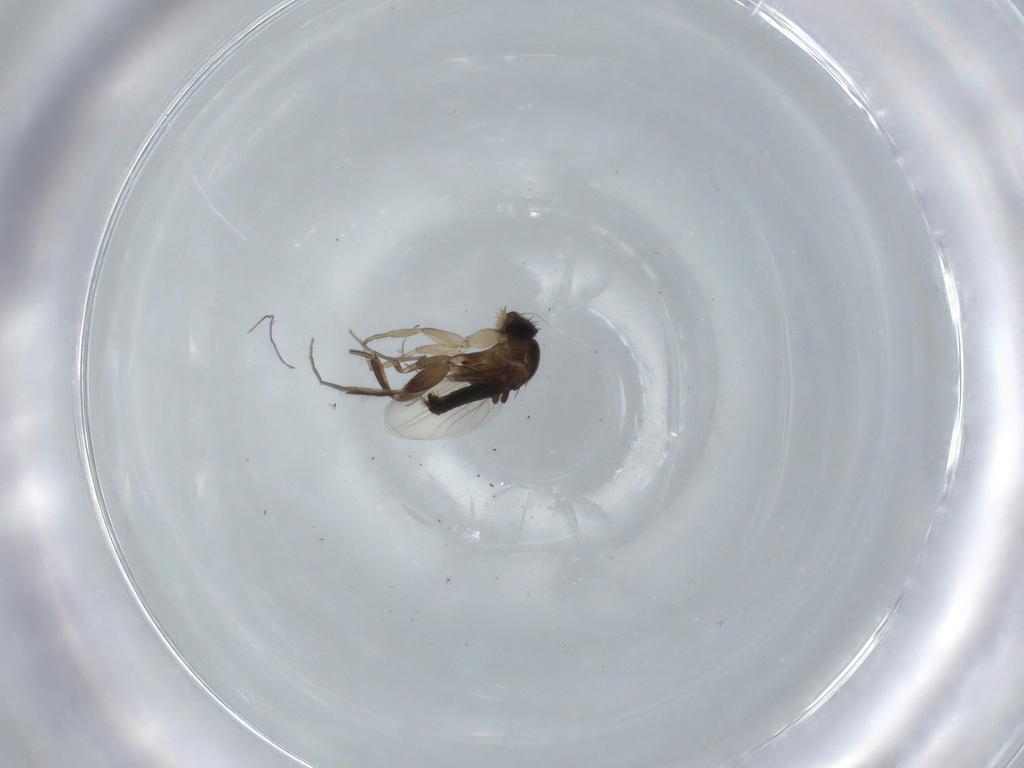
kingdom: Animalia
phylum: Arthropoda
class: Insecta
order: Diptera
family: Phoridae
